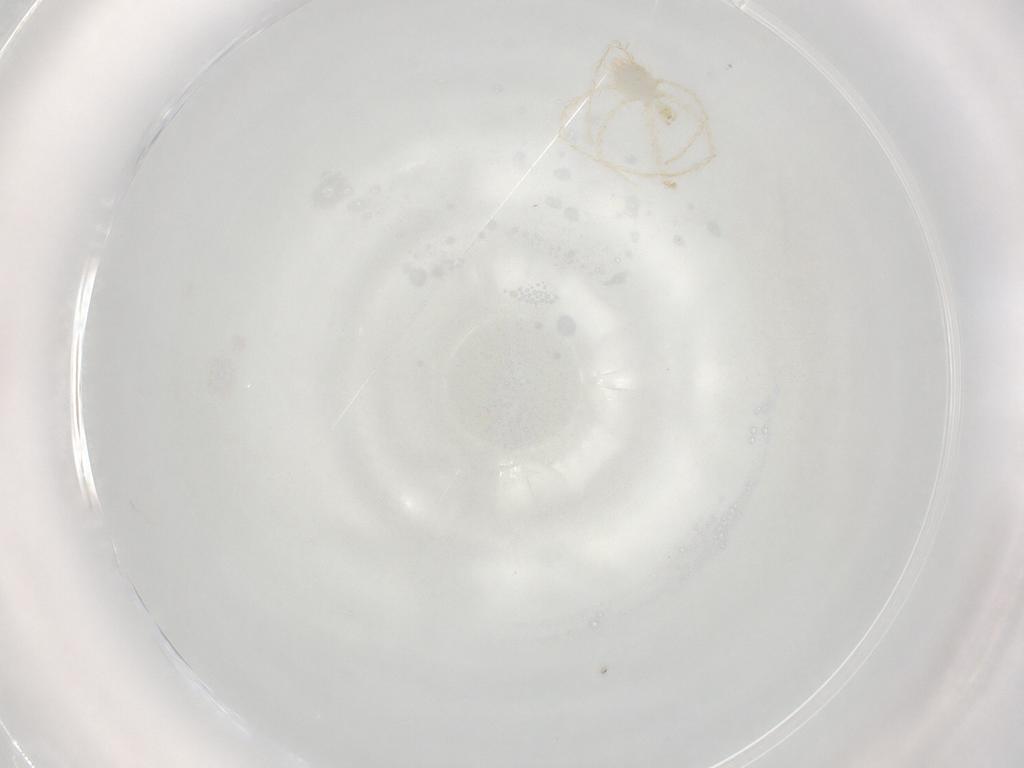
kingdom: Animalia
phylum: Arthropoda
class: Arachnida
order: Trombidiformes
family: Erythraeidae
